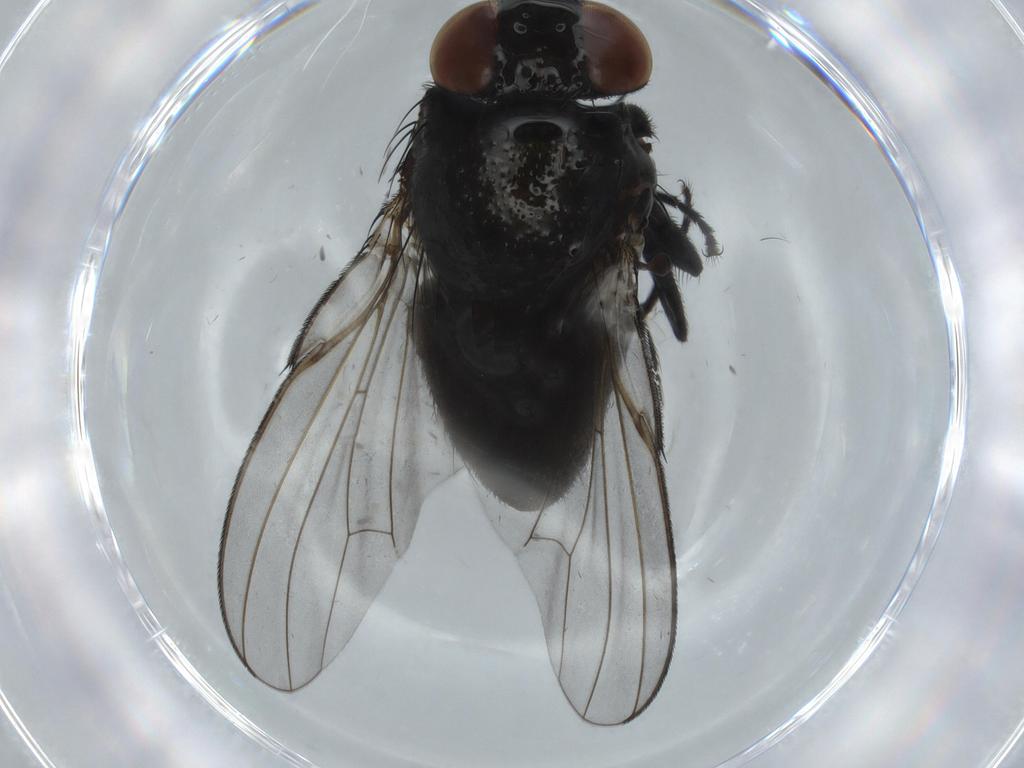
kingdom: Animalia
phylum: Arthropoda
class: Insecta
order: Diptera
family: Milichiidae
